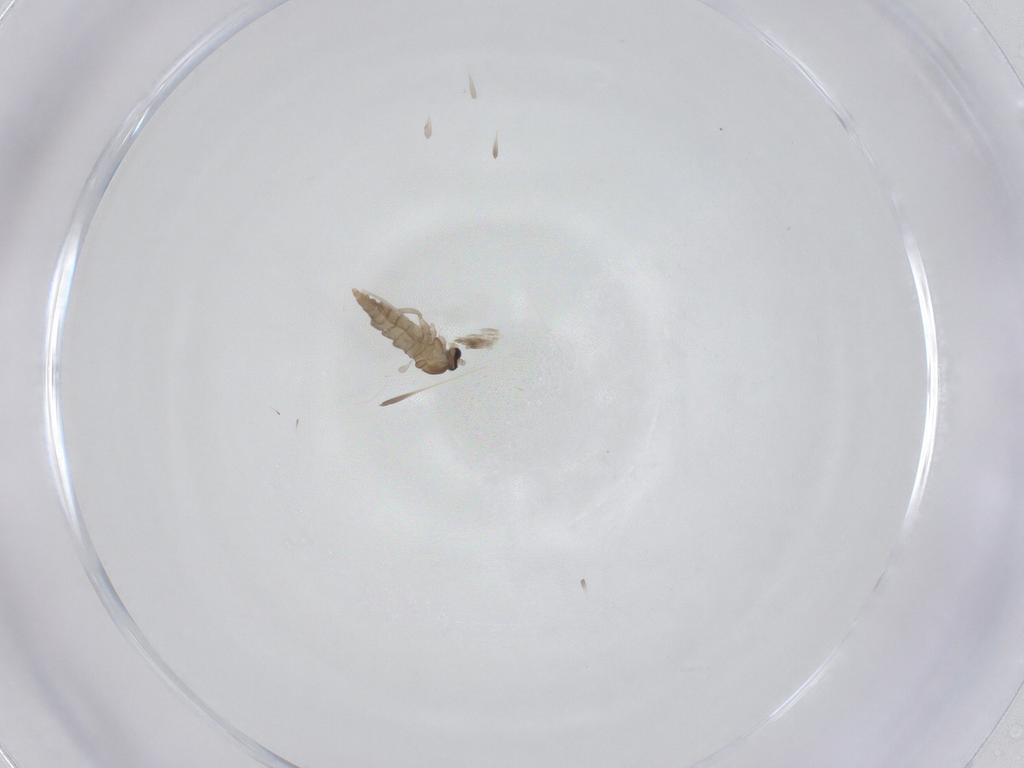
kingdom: Animalia
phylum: Arthropoda
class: Insecta
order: Diptera
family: Cecidomyiidae
